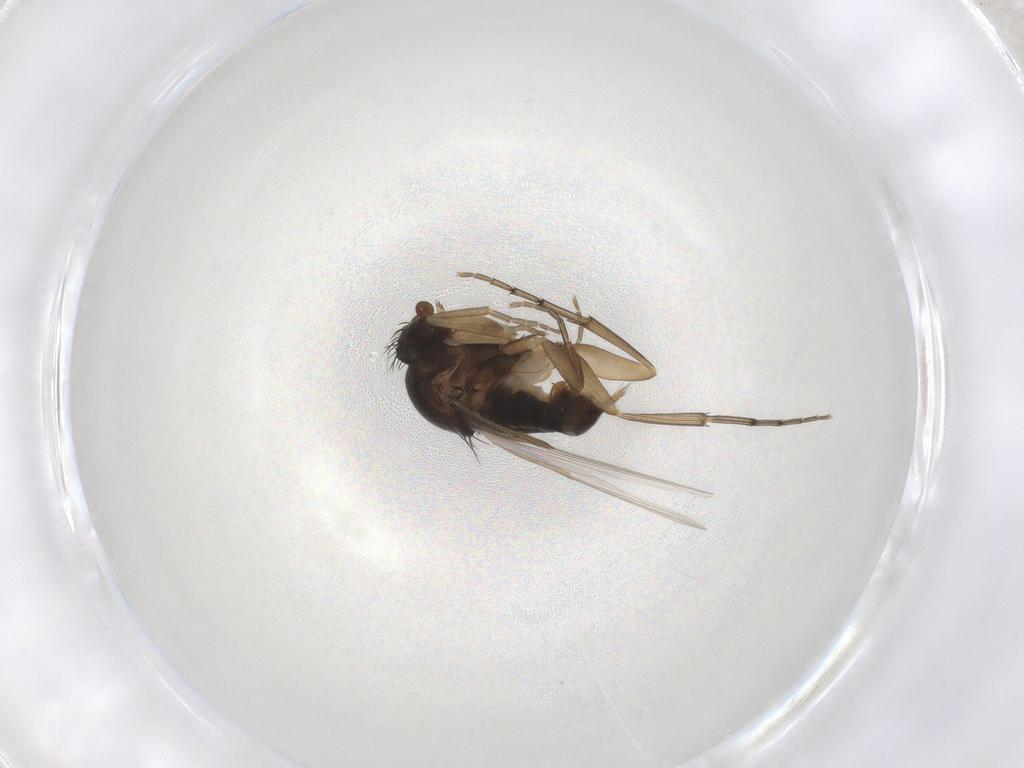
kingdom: Animalia
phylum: Arthropoda
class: Insecta
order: Diptera
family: Phoridae
